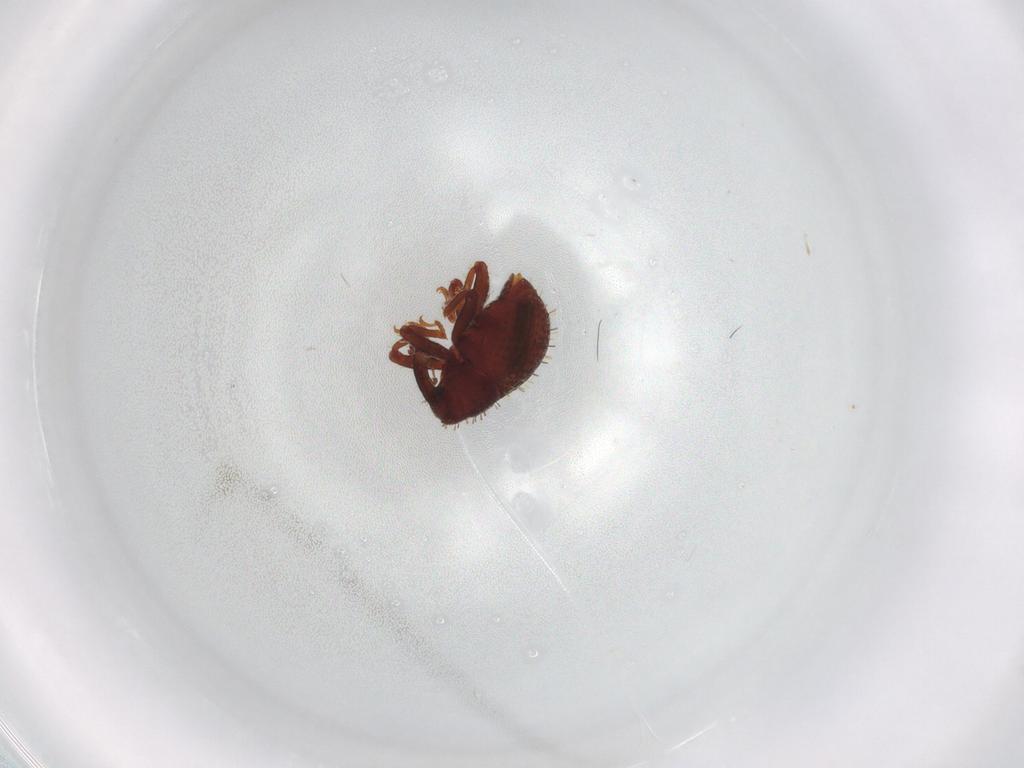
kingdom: Animalia
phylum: Arthropoda
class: Insecta
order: Coleoptera
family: Curculionidae
